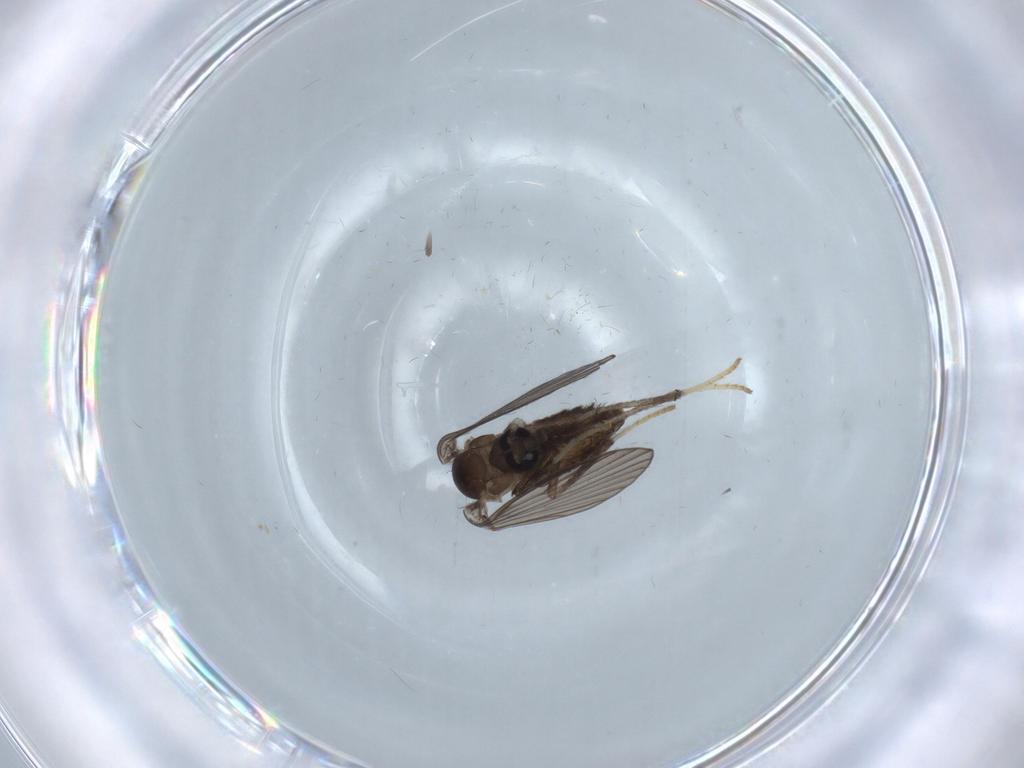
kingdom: Animalia
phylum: Arthropoda
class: Insecta
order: Diptera
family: Psychodidae
